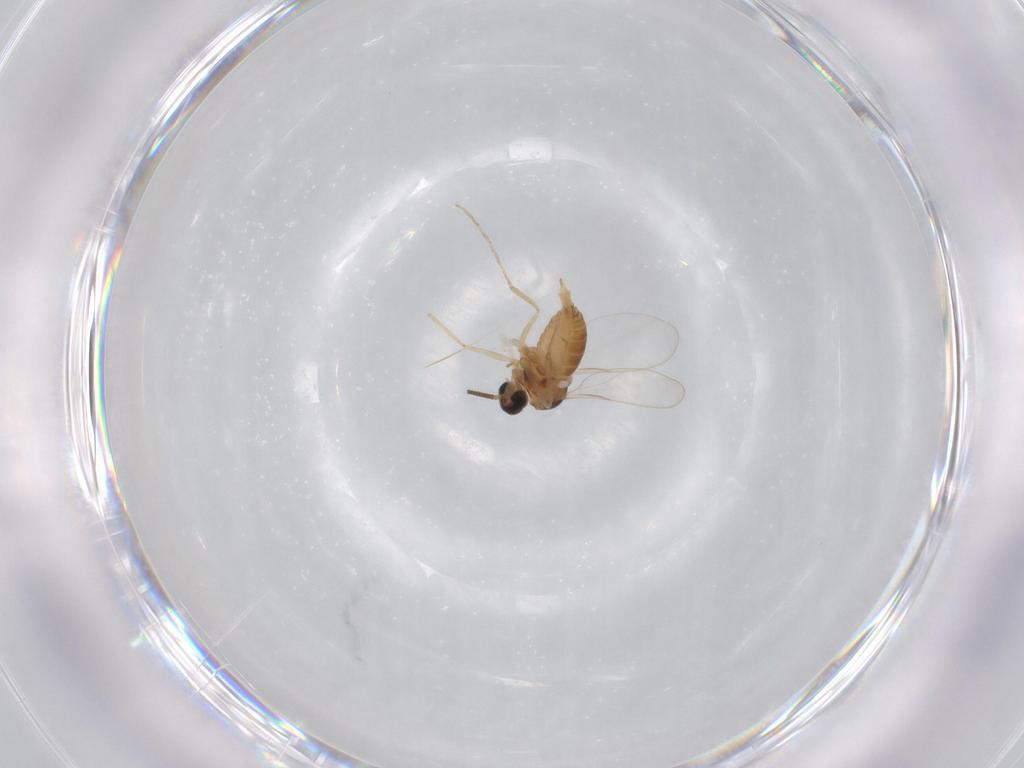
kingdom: Animalia
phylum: Arthropoda
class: Insecta
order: Diptera
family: Cecidomyiidae
